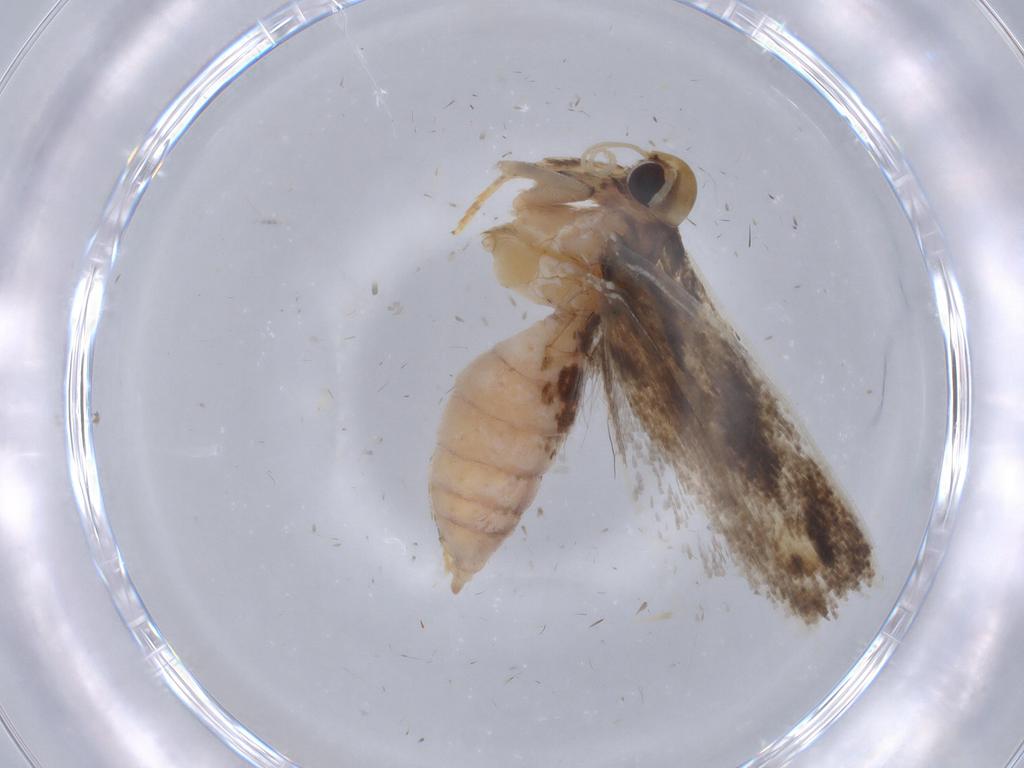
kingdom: Animalia
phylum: Arthropoda
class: Insecta
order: Lepidoptera
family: Gelechiidae
